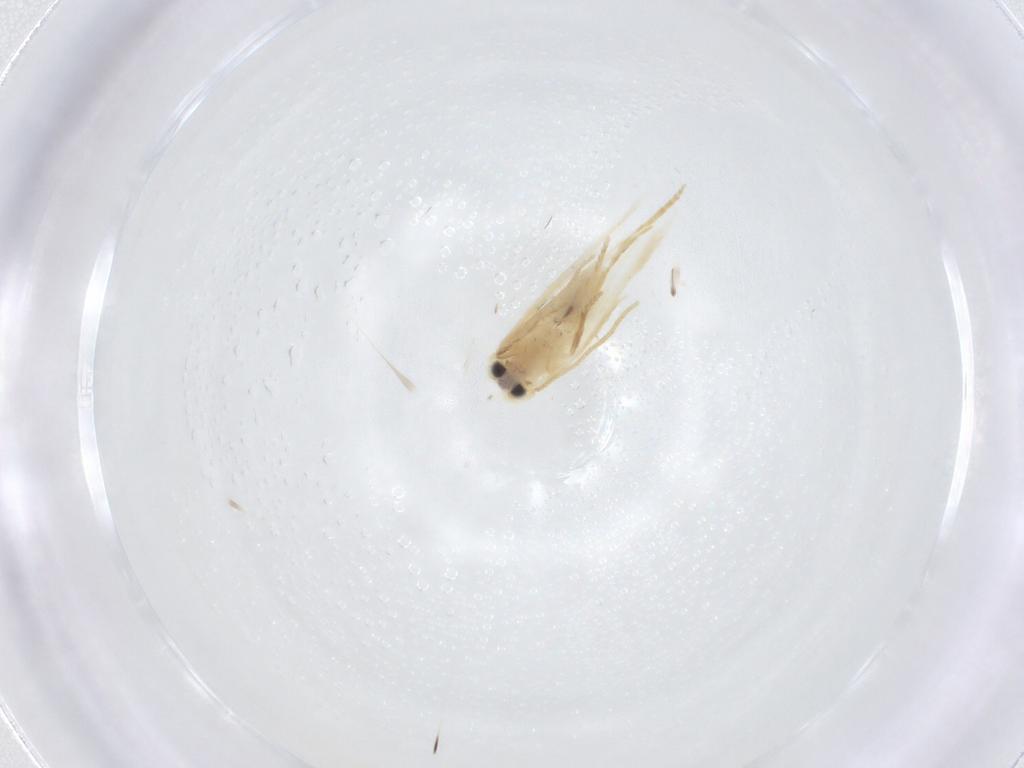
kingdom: Animalia
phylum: Arthropoda
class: Insecta
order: Lepidoptera
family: Nepticulidae
